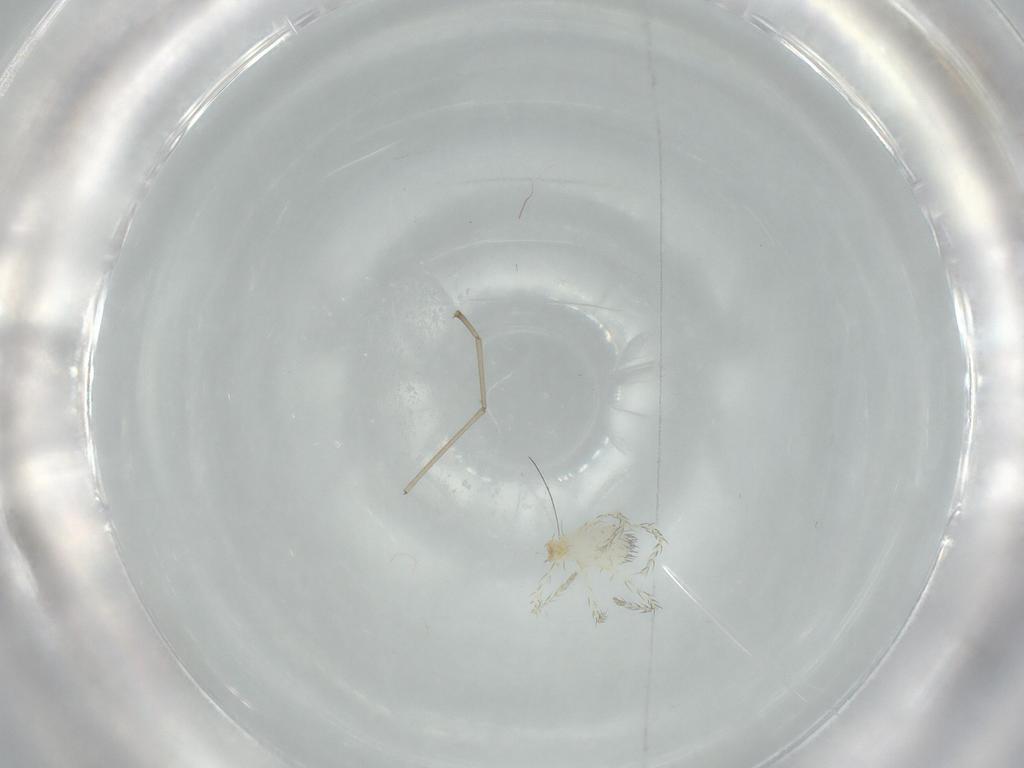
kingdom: Animalia
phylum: Arthropoda
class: Arachnida
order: Trombidiformes
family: Erythraeidae
